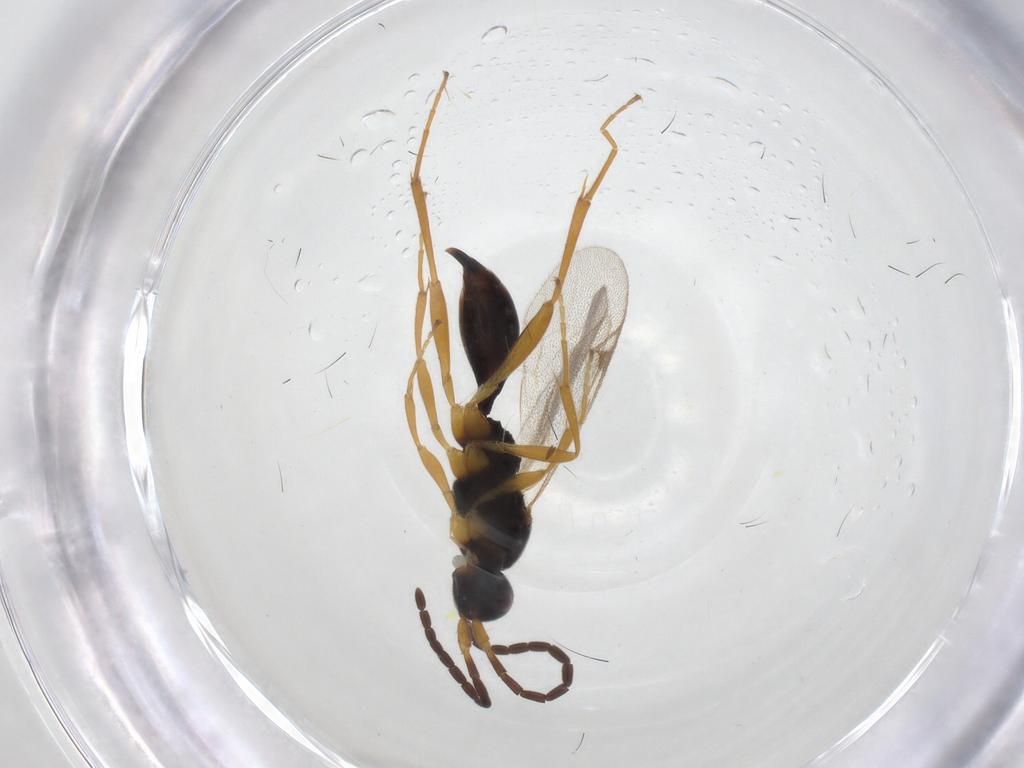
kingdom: Animalia
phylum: Arthropoda
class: Insecta
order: Hymenoptera
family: Proctotrupidae
